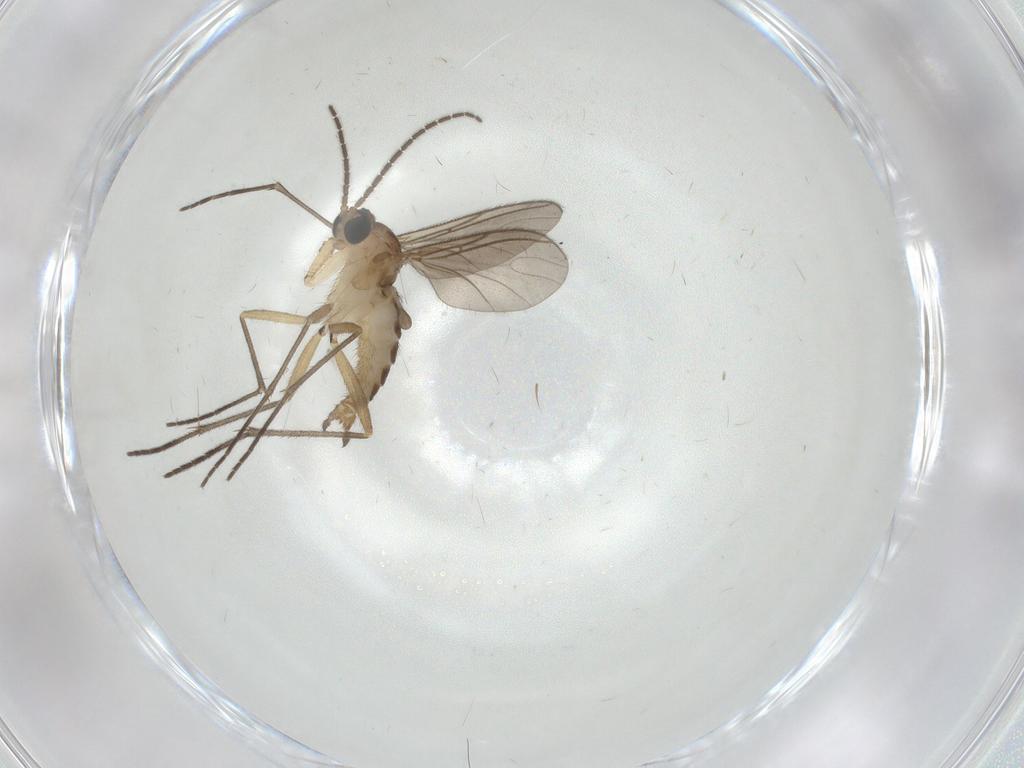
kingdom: Animalia
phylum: Arthropoda
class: Insecta
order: Diptera
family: Sciaridae
